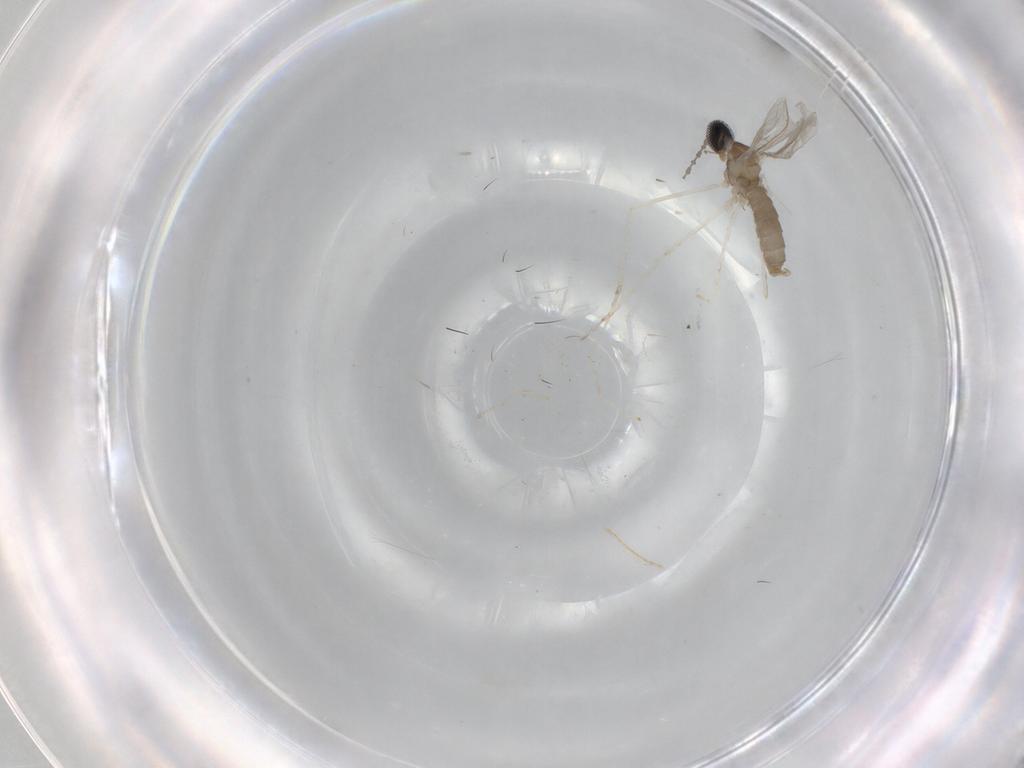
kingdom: Animalia
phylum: Arthropoda
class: Insecta
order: Diptera
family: Cecidomyiidae
